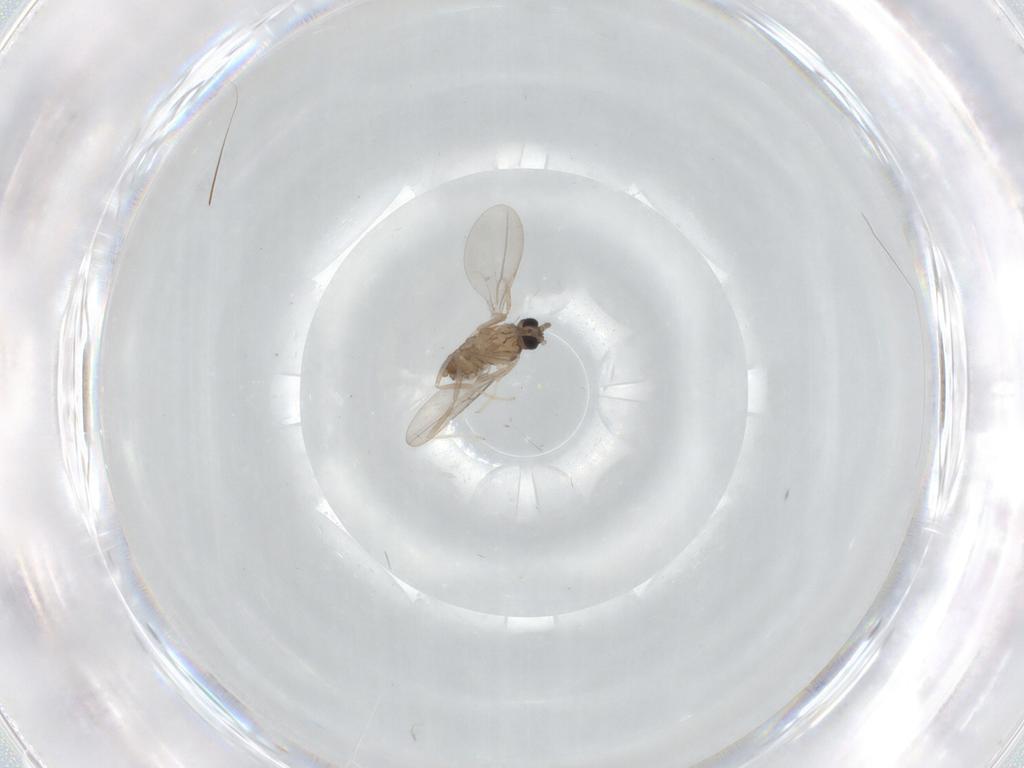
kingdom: Animalia
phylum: Arthropoda
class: Insecta
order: Diptera
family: Cecidomyiidae
